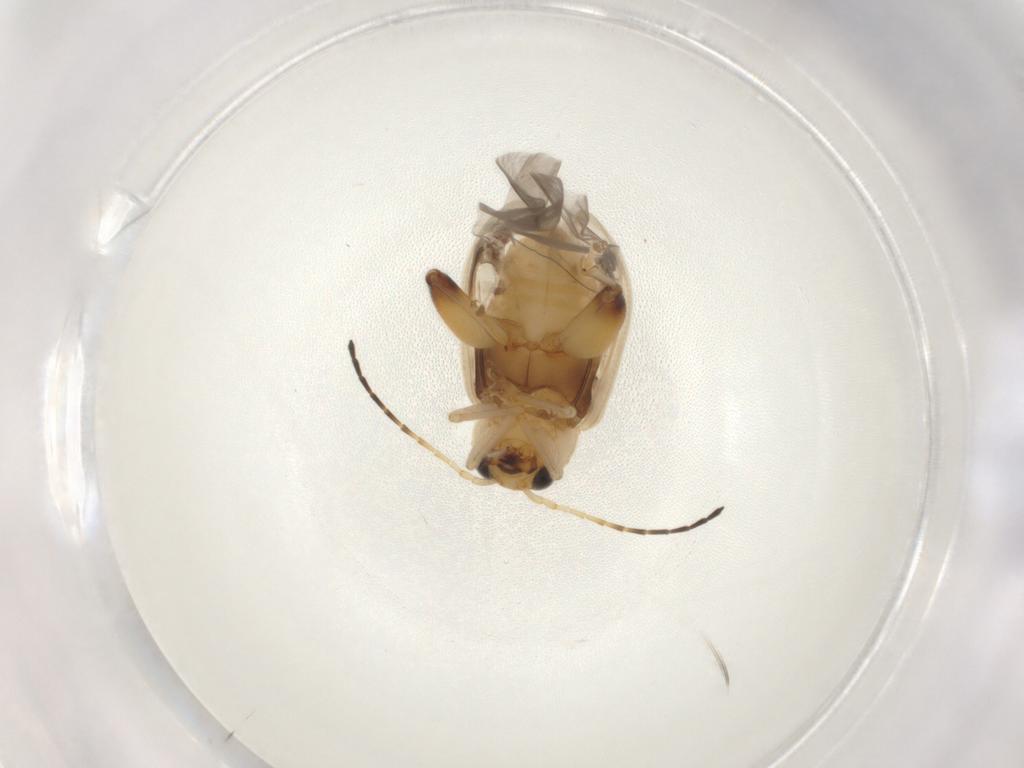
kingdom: Animalia
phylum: Arthropoda
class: Insecta
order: Coleoptera
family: Chrysomelidae
